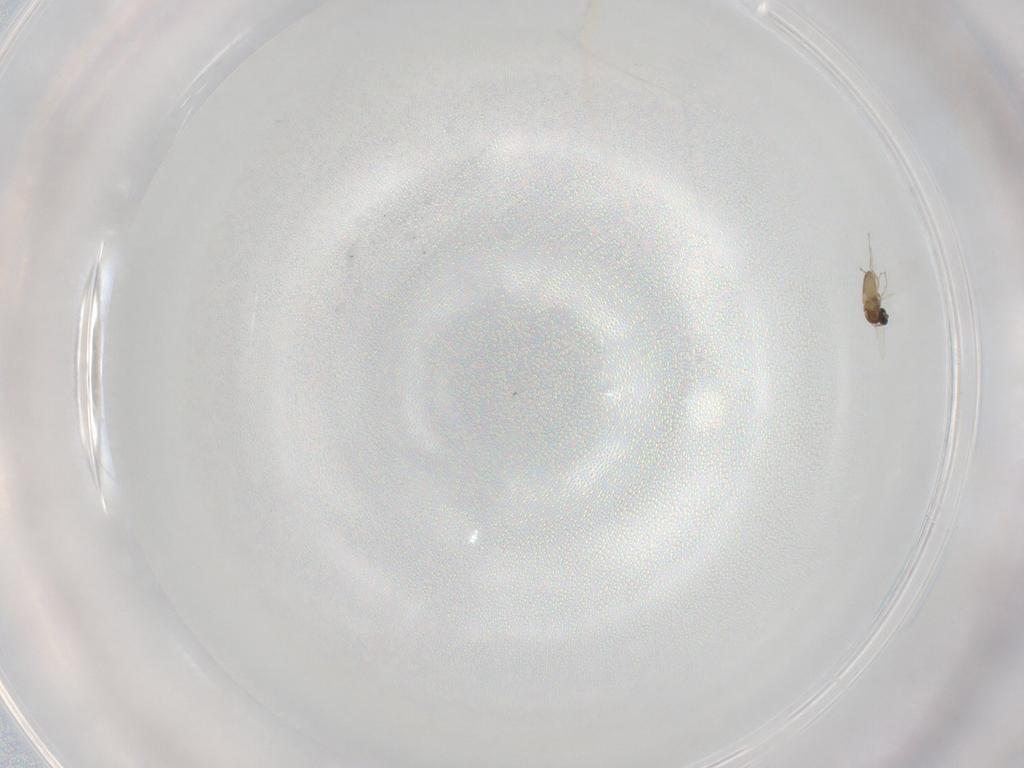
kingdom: Animalia
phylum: Arthropoda
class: Insecta
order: Diptera
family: Cecidomyiidae
